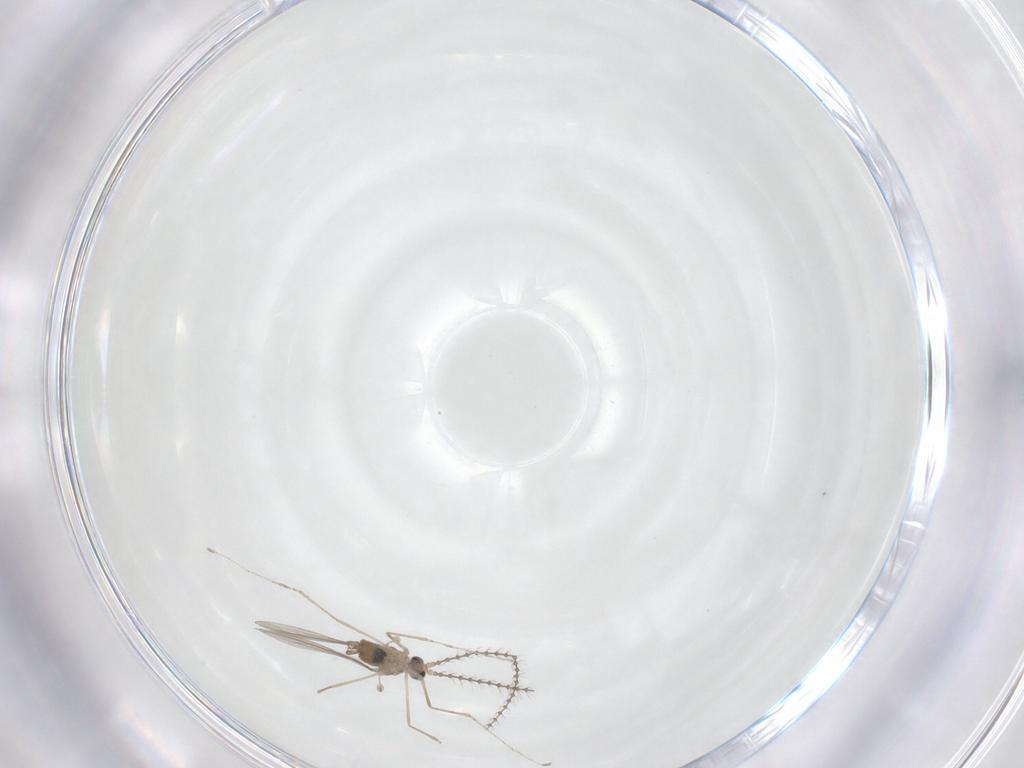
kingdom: Animalia
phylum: Arthropoda
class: Insecta
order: Diptera
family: Cecidomyiidae
